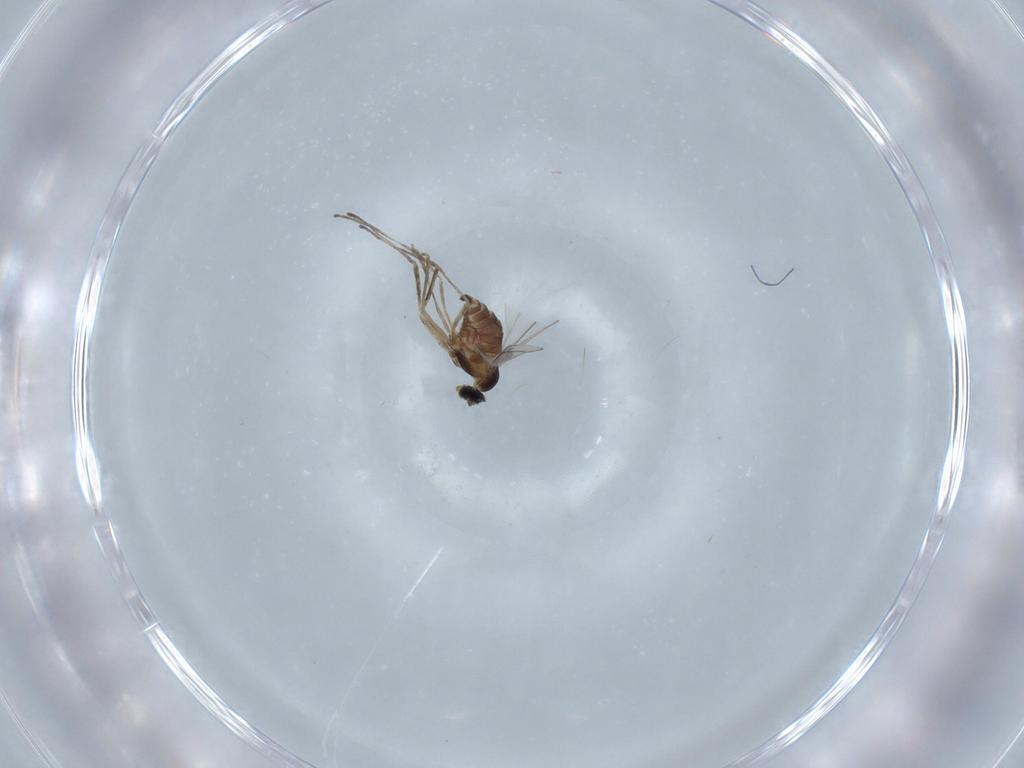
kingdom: Animalia
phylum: Arthropoda
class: Insecta
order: Diptera
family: Cecidomyiidae
